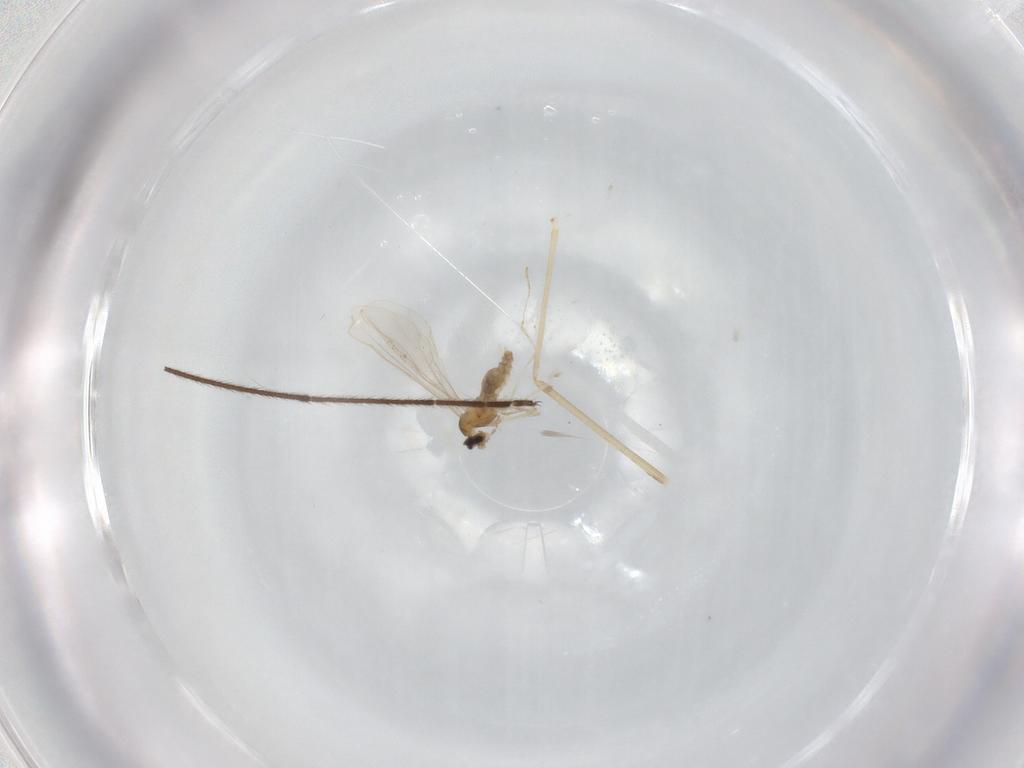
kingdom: Animalia
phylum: Arthropoda
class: Insecta
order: Diptera
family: Cecidomyiidae
